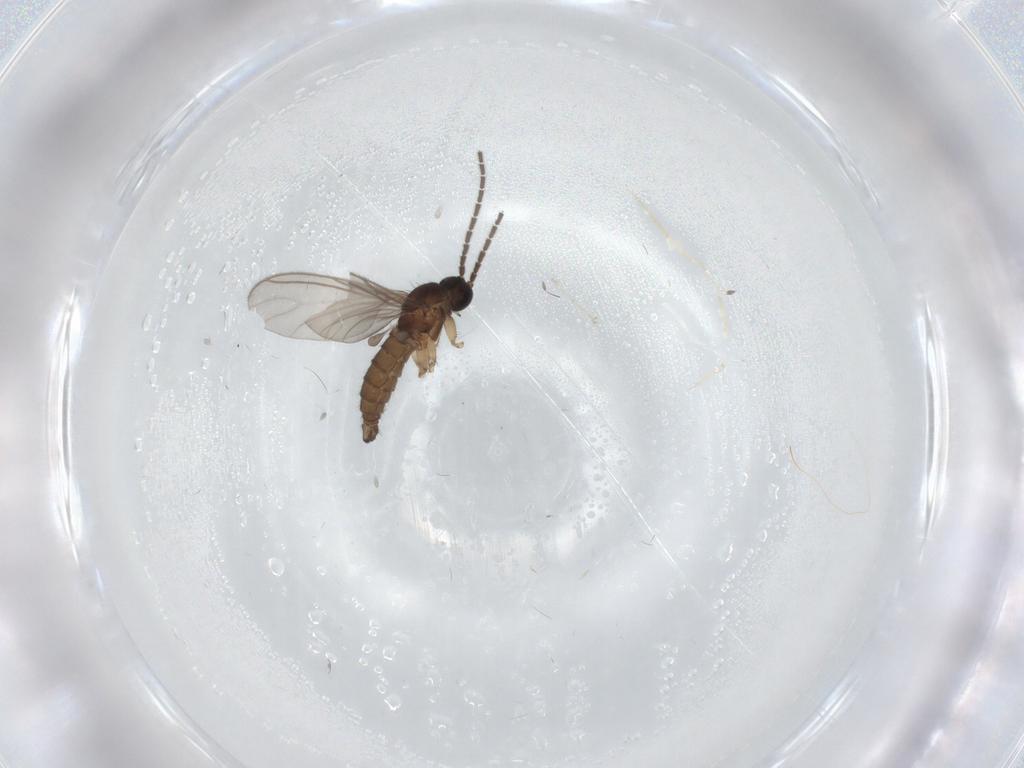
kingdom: Animalia
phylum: Arthropoda
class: Insecta
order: Diptera
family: Sciaridae
